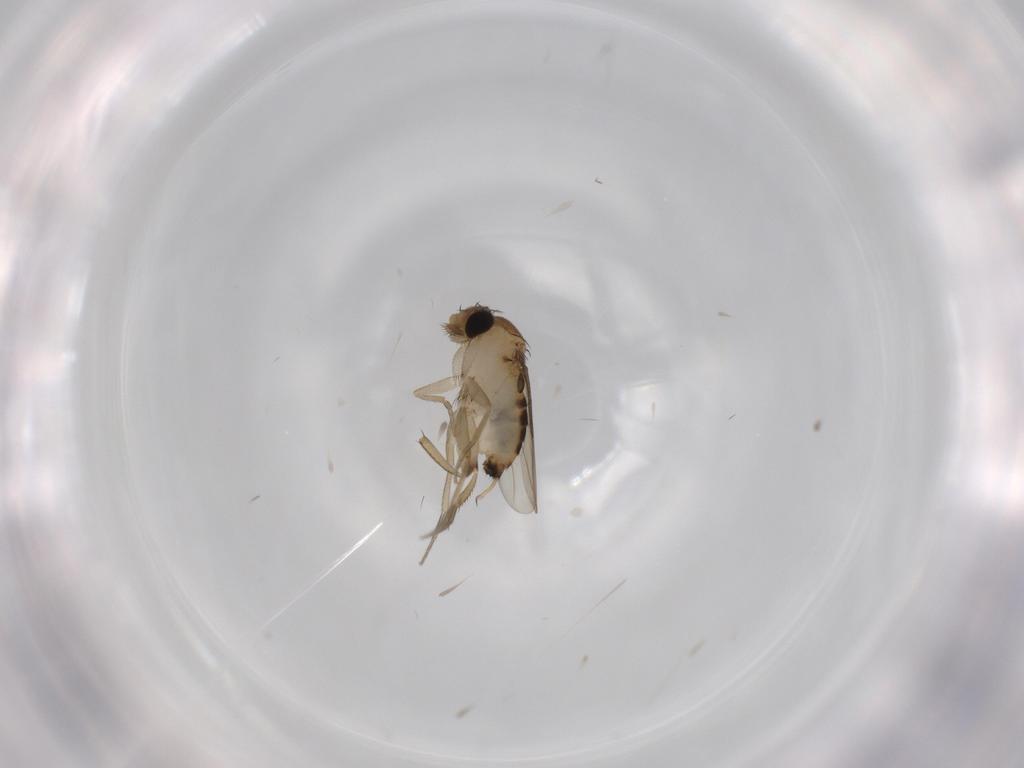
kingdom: Animalia
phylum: Arthropoda
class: Insecta
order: Diptera
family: Phoridae
